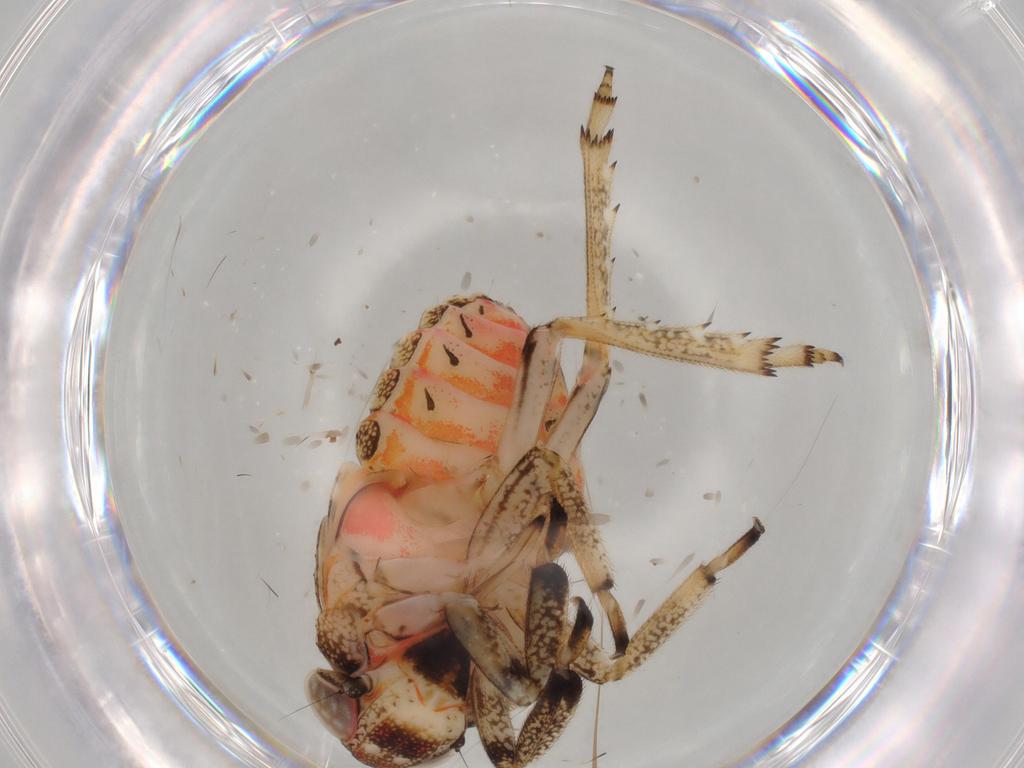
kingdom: Animalia
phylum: Arthropoda
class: Insecta
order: Hemiptera
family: Issidae
